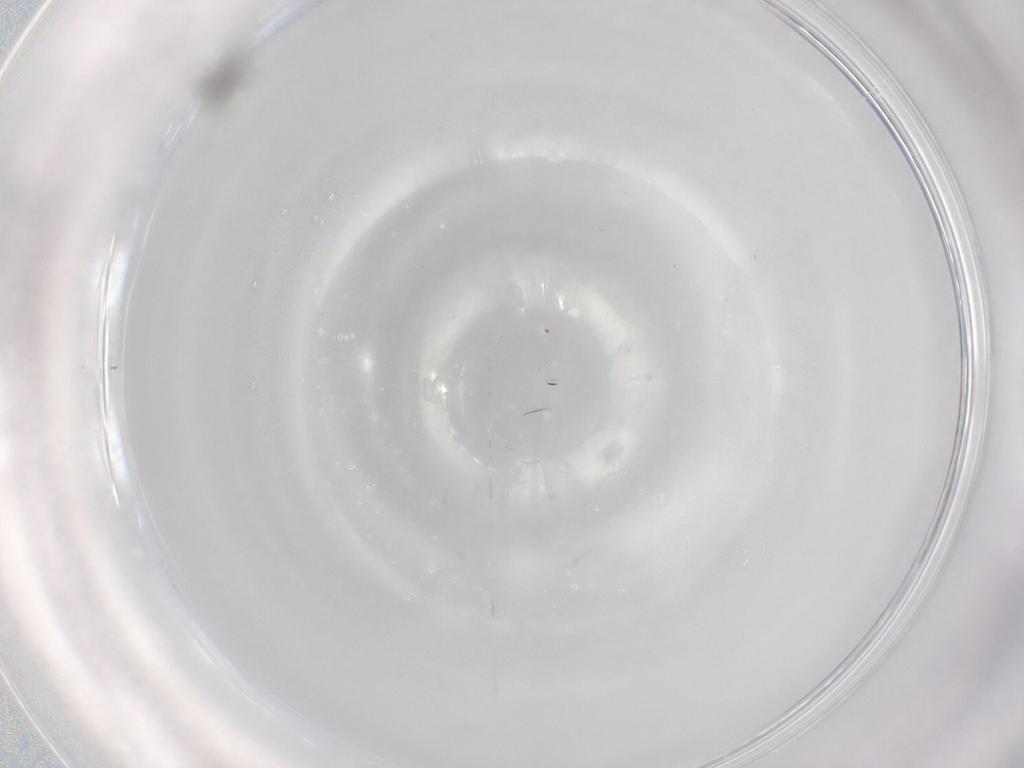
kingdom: Animalia
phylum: Arthropoda
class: Insecta
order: Diptera
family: Cecidomyiidae
